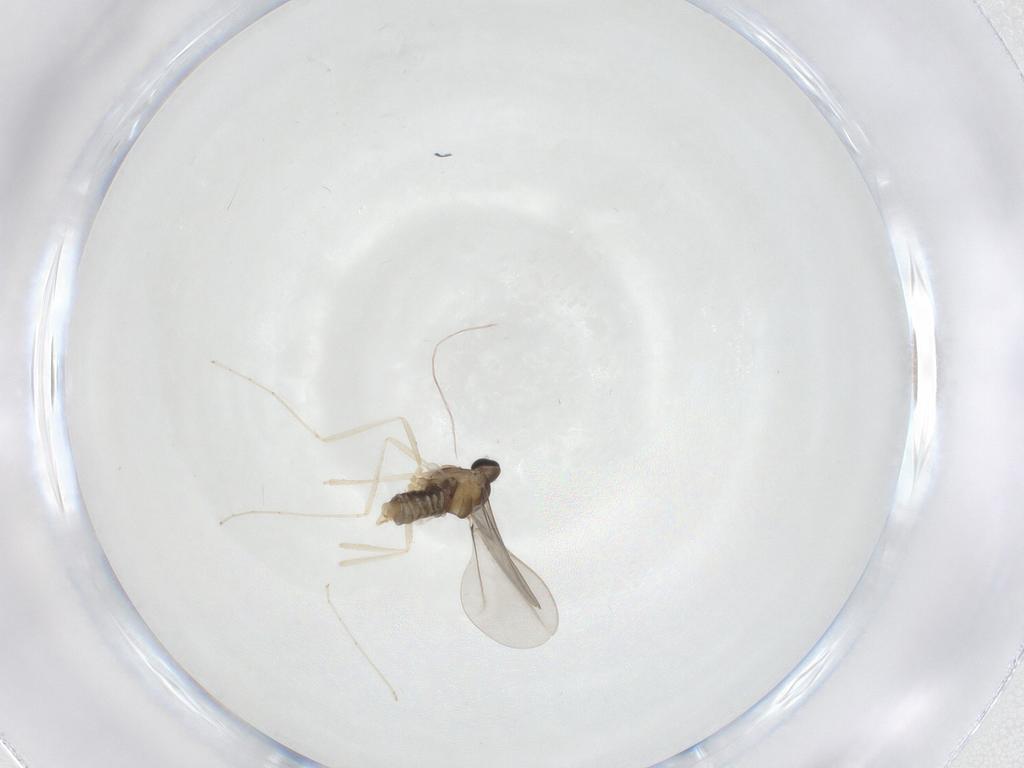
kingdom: Animalia
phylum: Arthropoda
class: Insecta
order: Diptera
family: Cecidomyiidae
